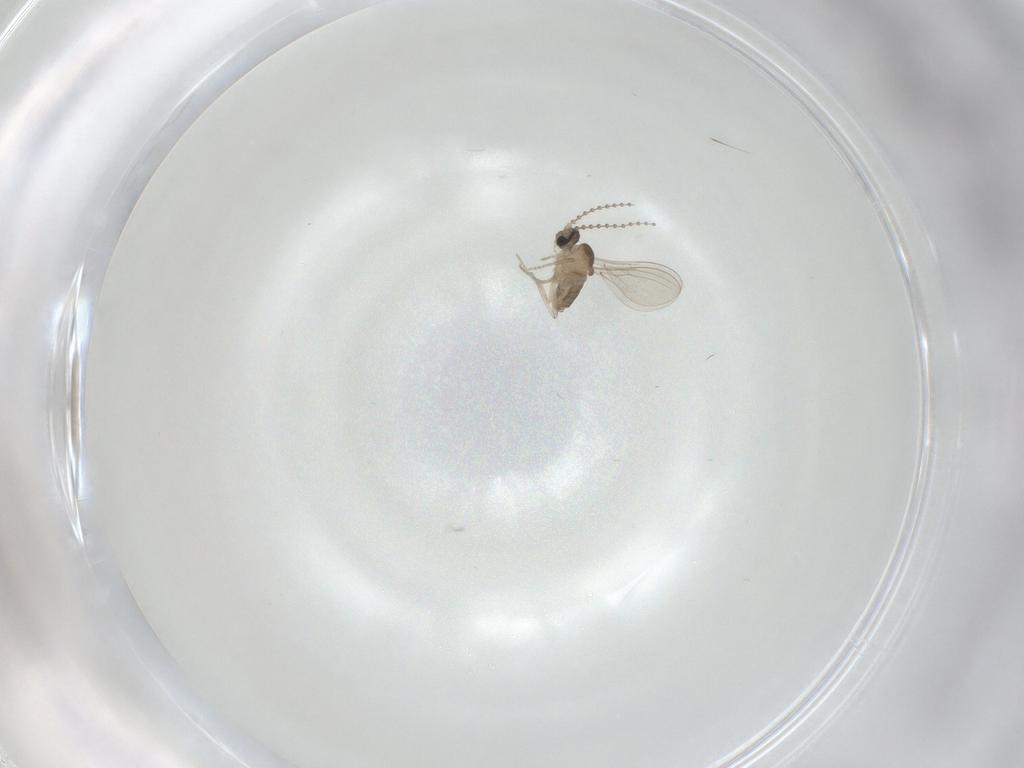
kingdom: Animalia
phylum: Arthropoda
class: Insecta
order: Diptera
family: Cecidomyiidae
